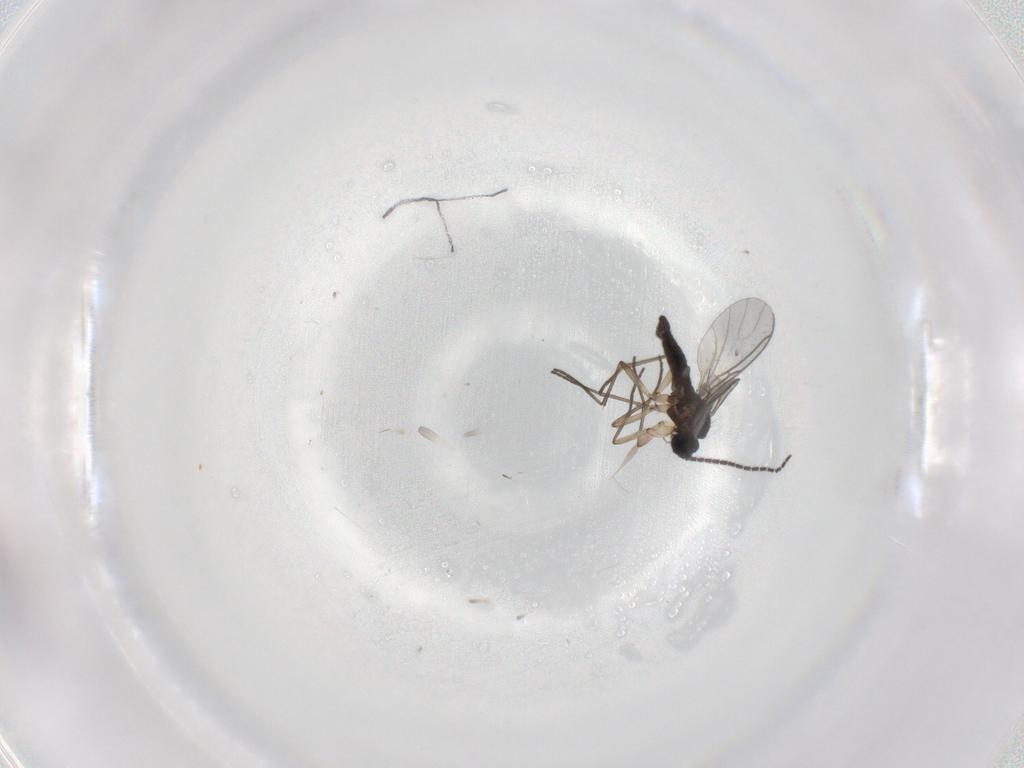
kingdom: Animalia
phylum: Arthropoda
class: Insecta
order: Diptera
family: Sciaridae
